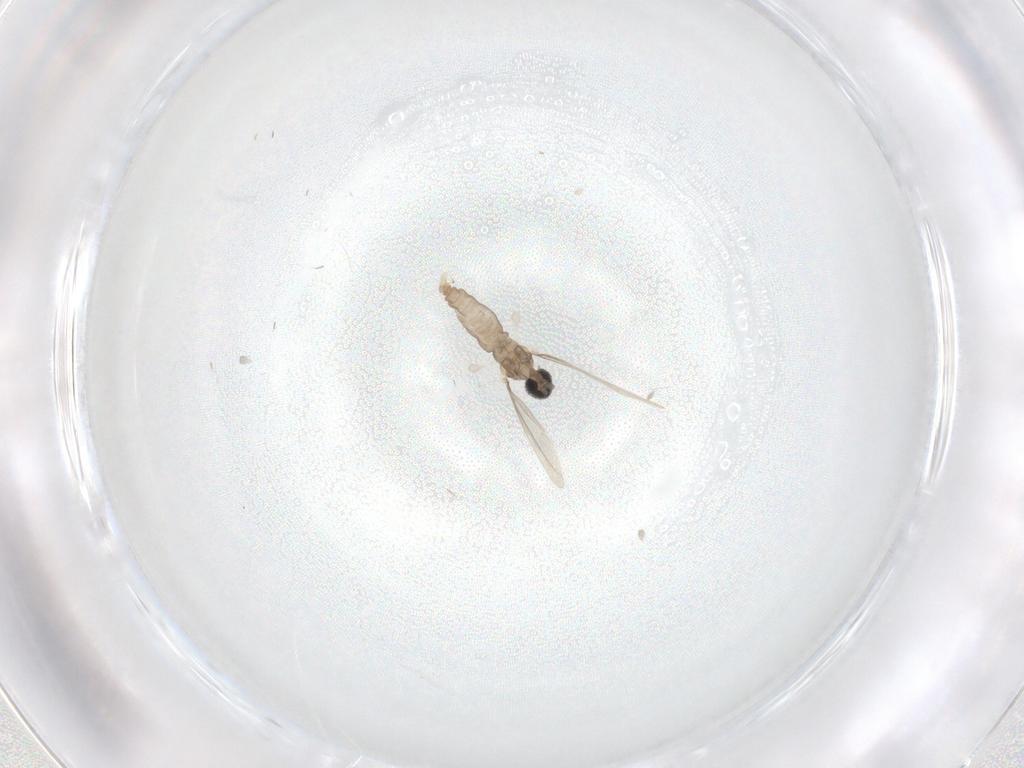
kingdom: Animalia
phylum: Arthropoda
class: Insecta
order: Diptera
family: Cecidomyiidae
